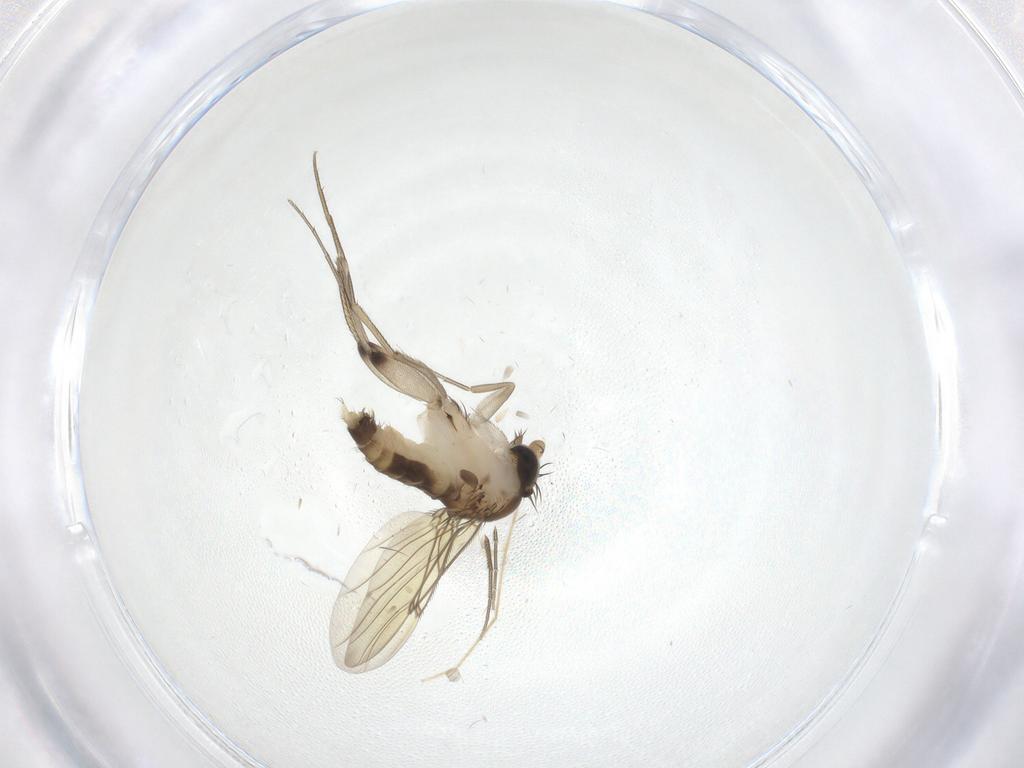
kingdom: Animalia
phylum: Arthropoda
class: Insecta
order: Diptera
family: Chironomidae
